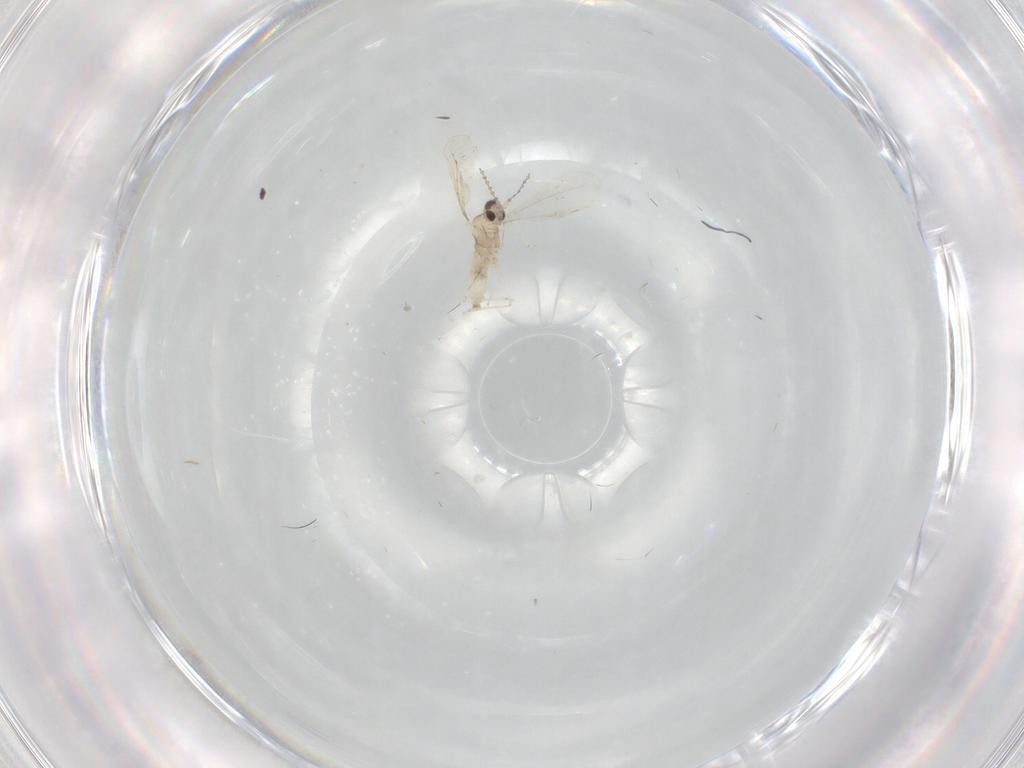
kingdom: Animalia
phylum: Arthropoda
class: Insecta
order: Diptera
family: Cecidomyiidae
